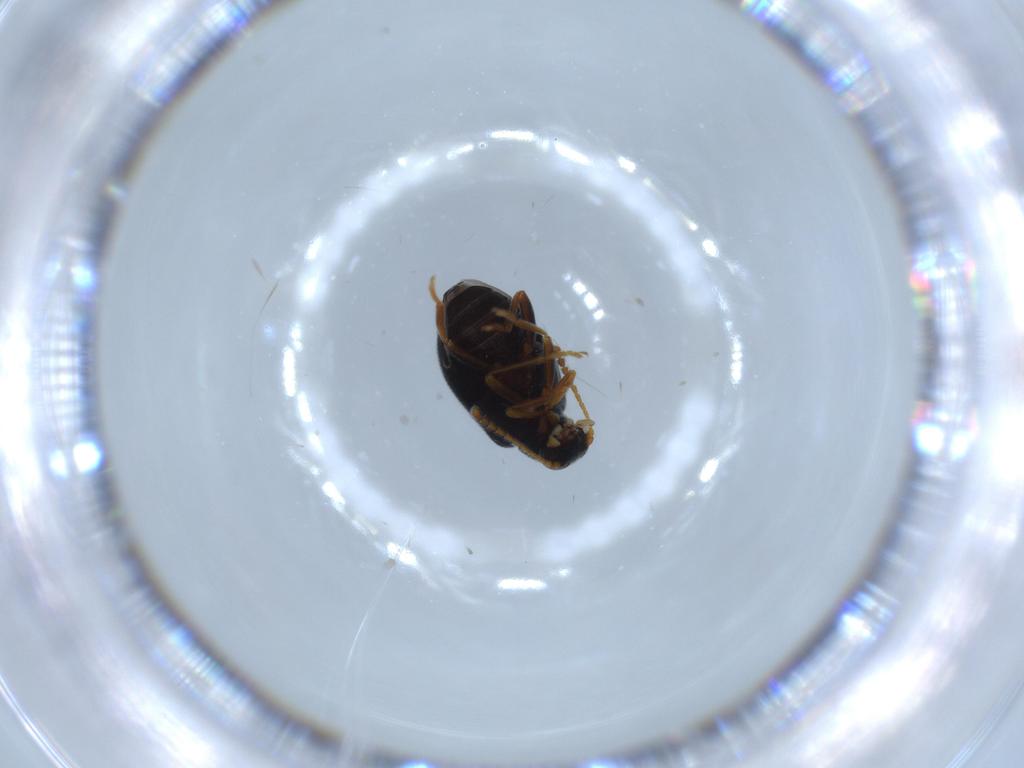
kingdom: Animalia
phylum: Arthropoda
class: Insecta
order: Coleoptera
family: Aderidae
